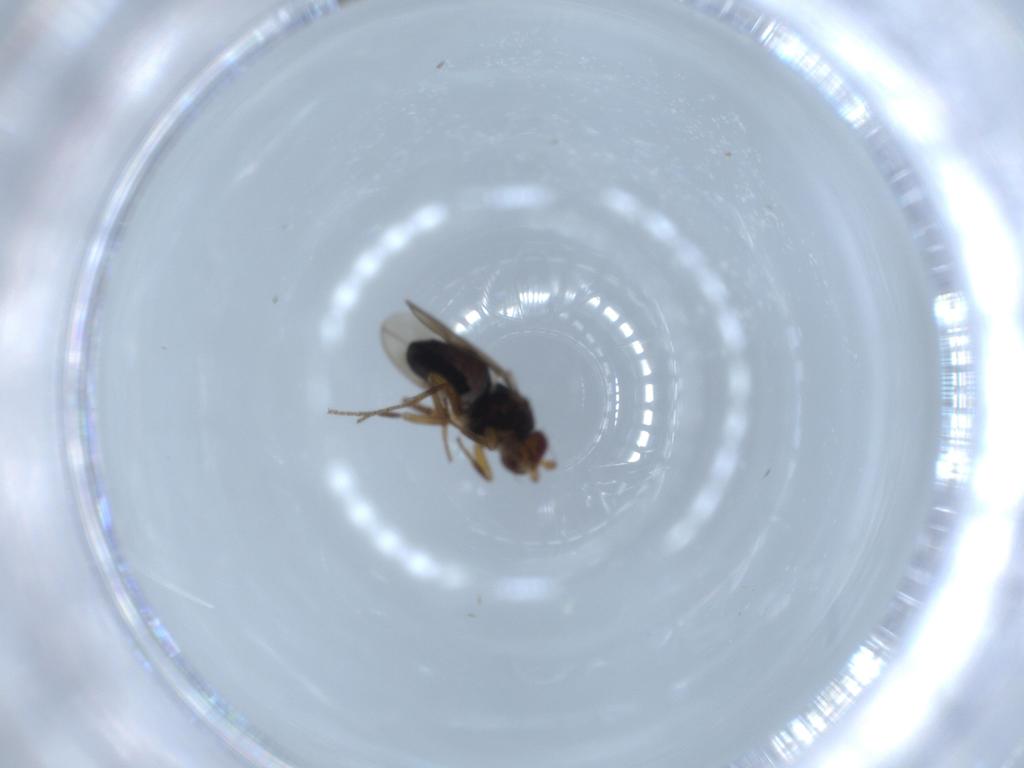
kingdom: Animalia
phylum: Arthropoda
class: Insecta
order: Diptera
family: Sphaeroceridae
